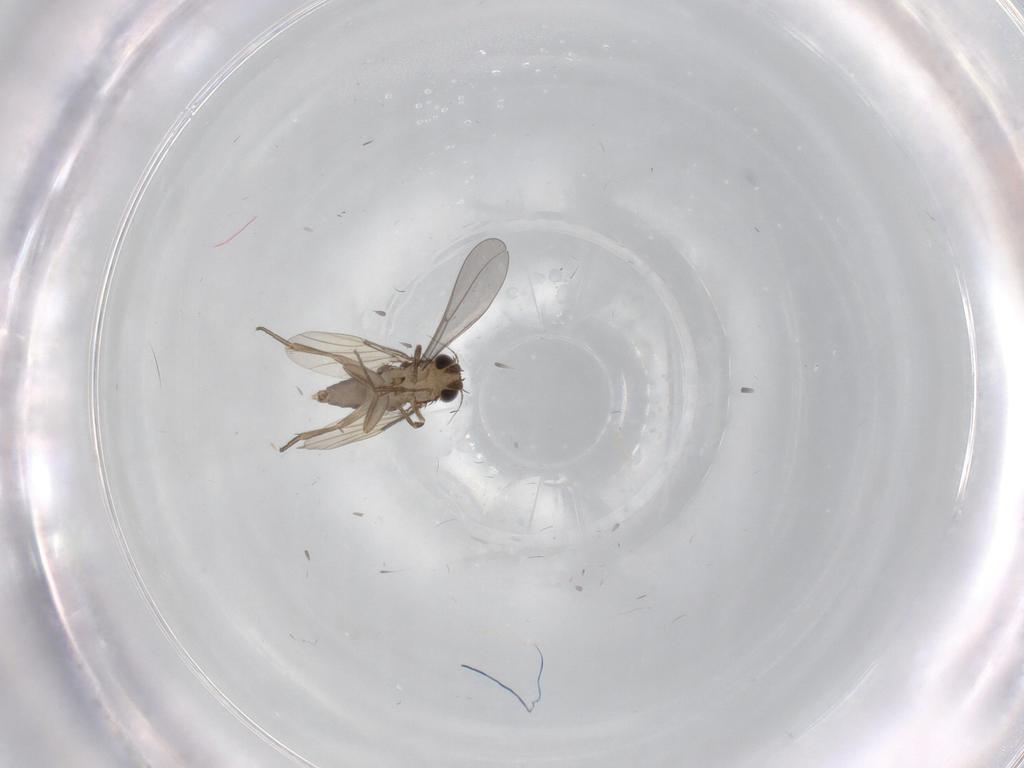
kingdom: Animalia
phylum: Arthropoda
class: Insecta
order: Diptera
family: Phoridae
